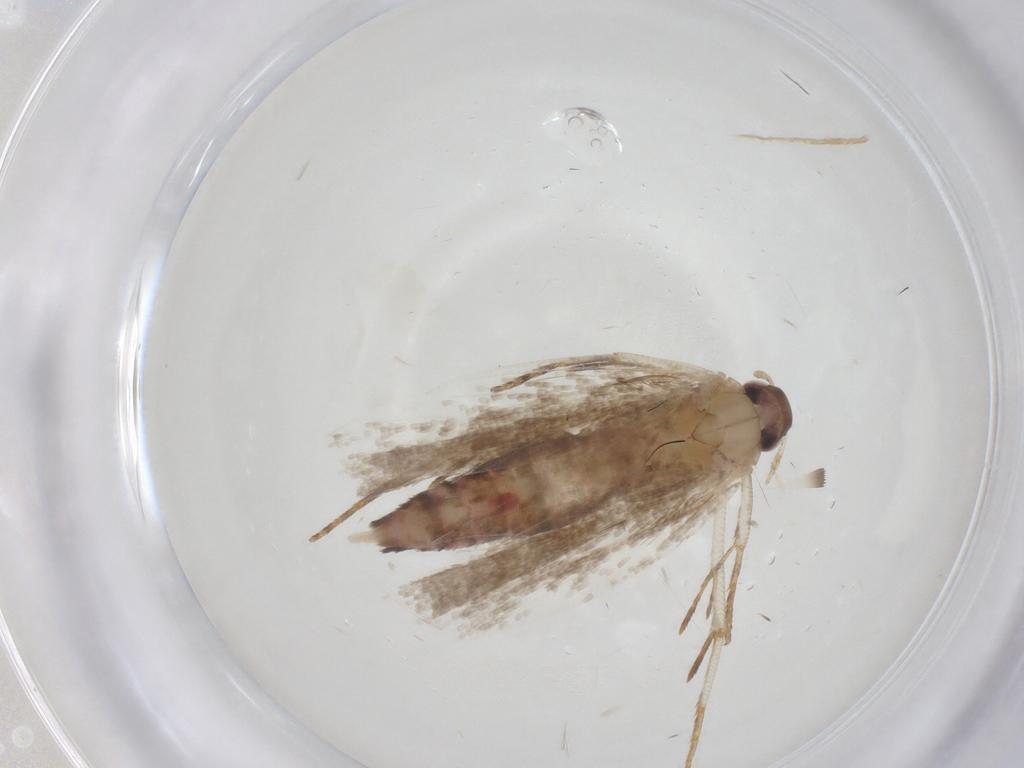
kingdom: Animalia
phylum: Arthropoda
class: Insecta
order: Lepidoptera
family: Gelechiidae
